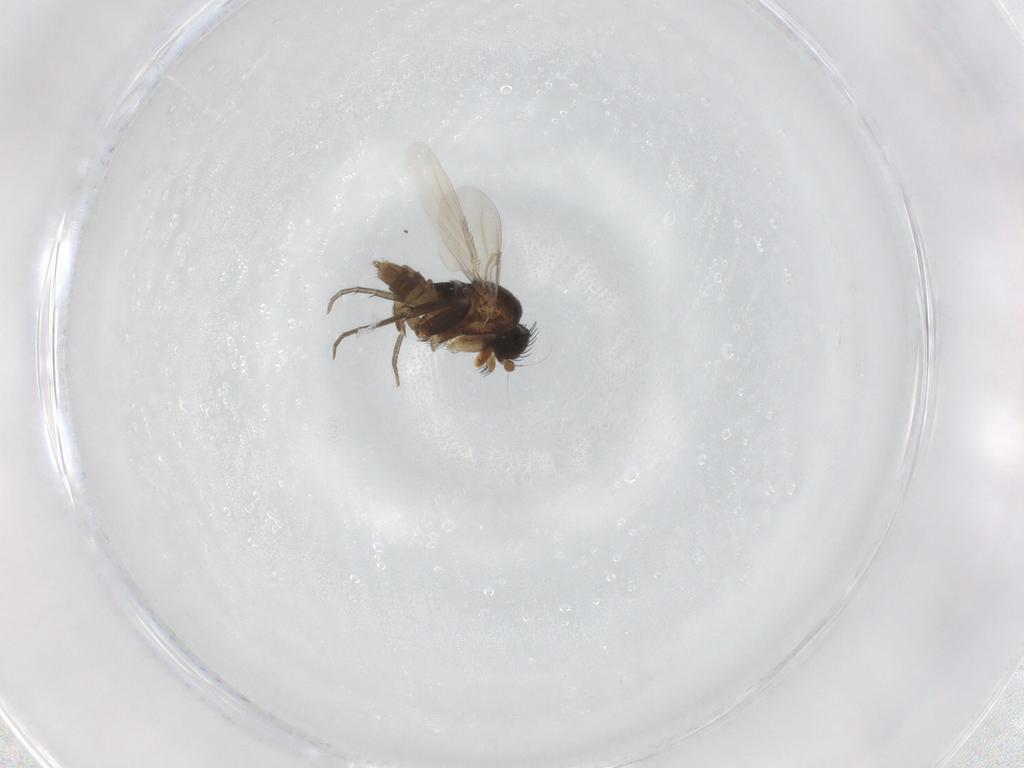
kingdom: Animalia
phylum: Arthropoda
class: Insecta
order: Diptera
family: Phoridae
